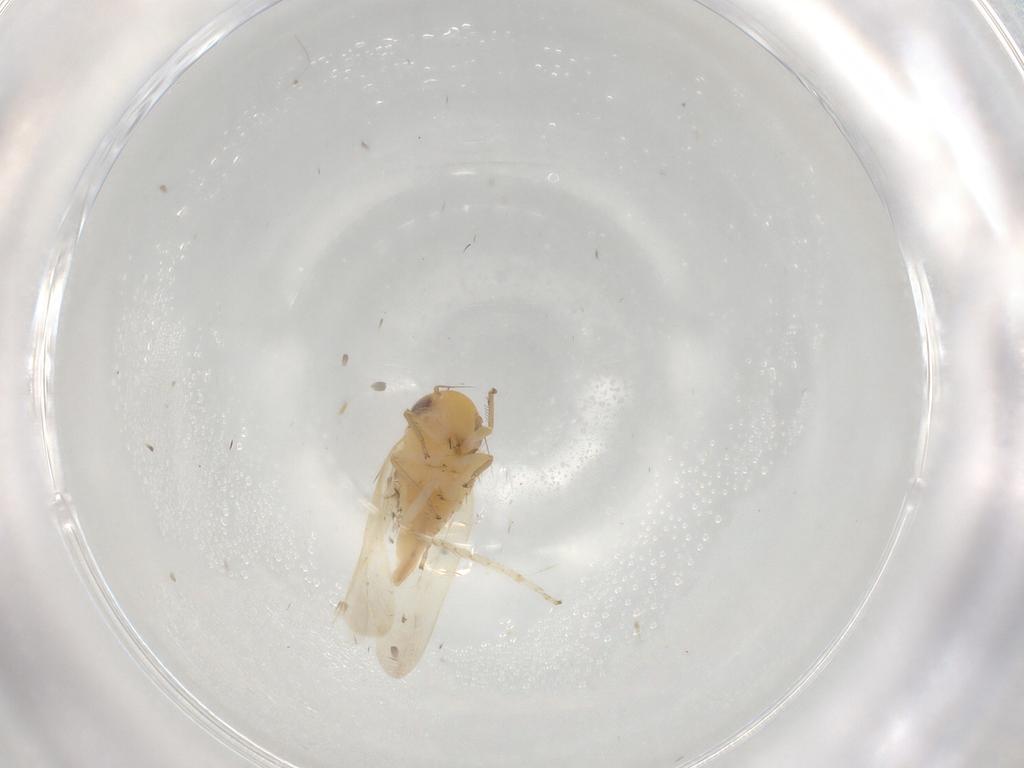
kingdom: Animalia
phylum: Arthropoda
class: Insecta
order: Hemiptera
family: Cicadellidae
